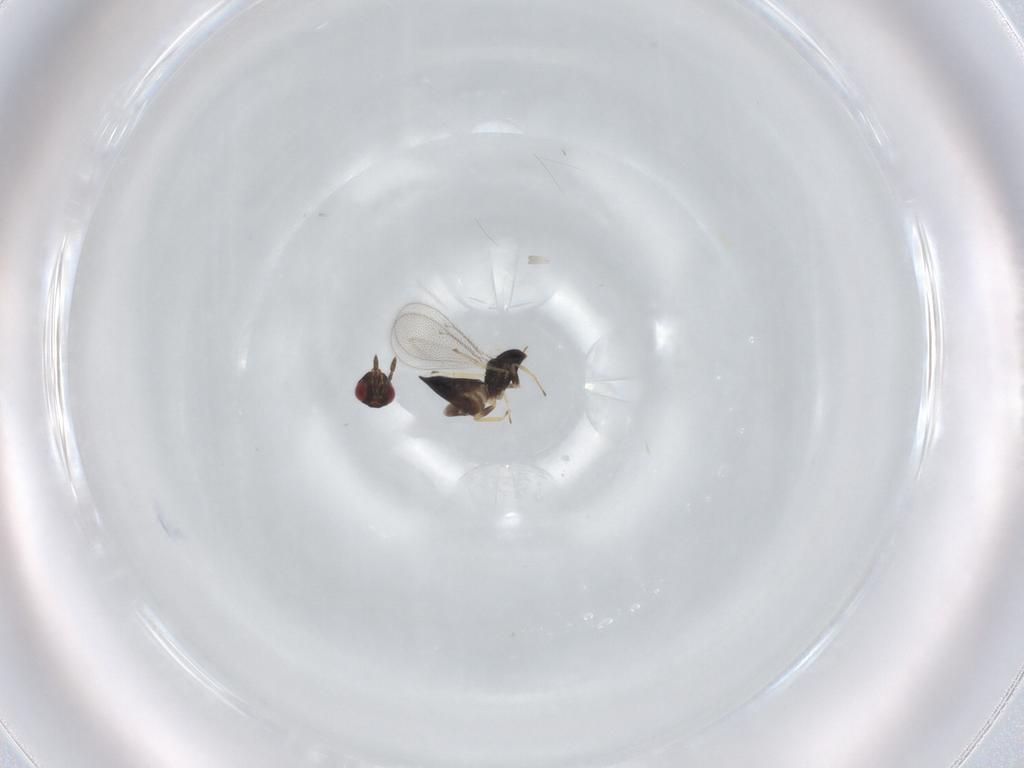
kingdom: Animalia
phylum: Arthropoda
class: Insecta
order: Hymenoptera
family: Eulophidae
